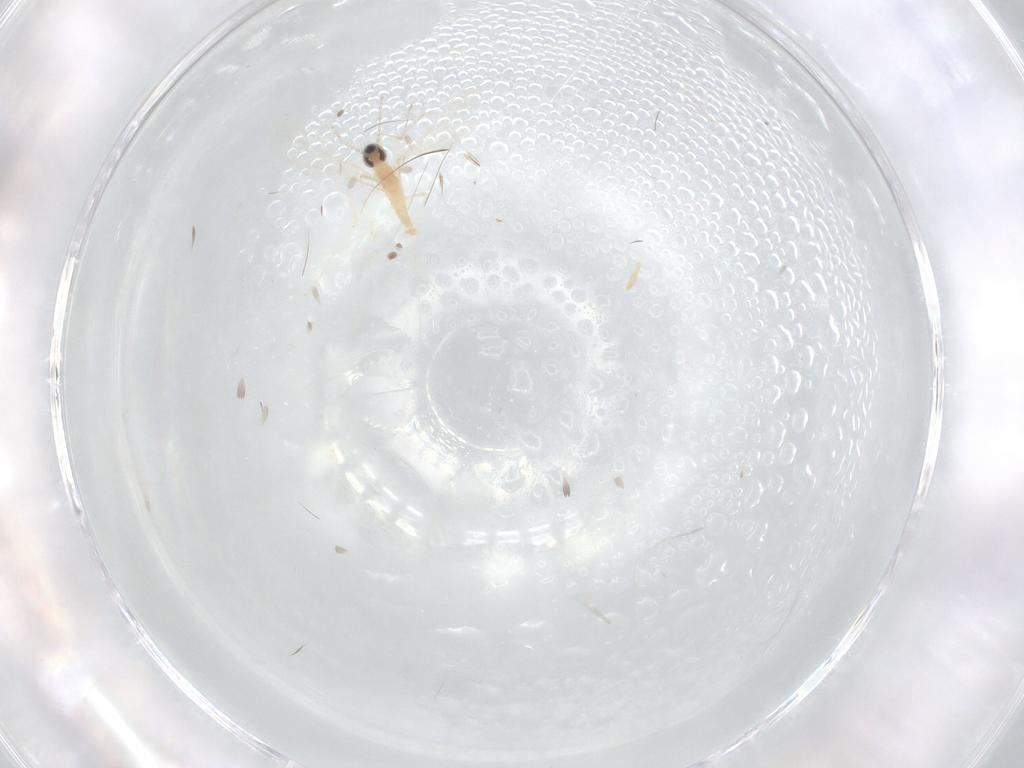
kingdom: Animalia
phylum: Arthropoda
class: Insecta
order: Diptera
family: Cecidomyiidae
